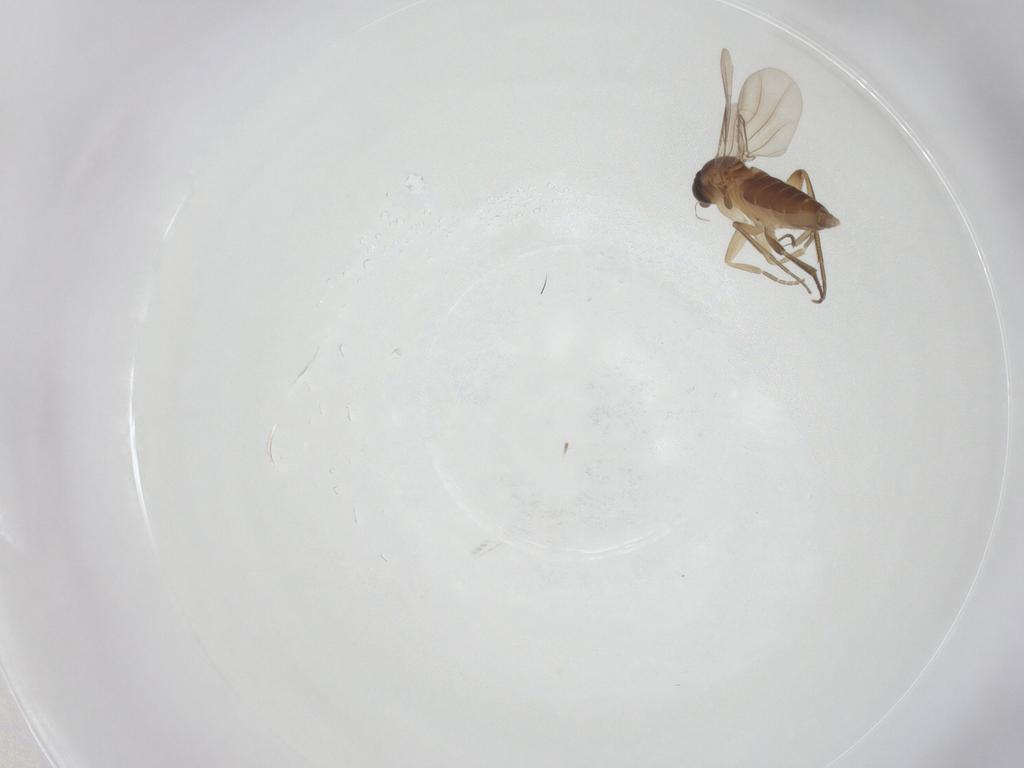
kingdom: Animalia
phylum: Arthropoda
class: Insecta
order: Diptera
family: Phoridae
